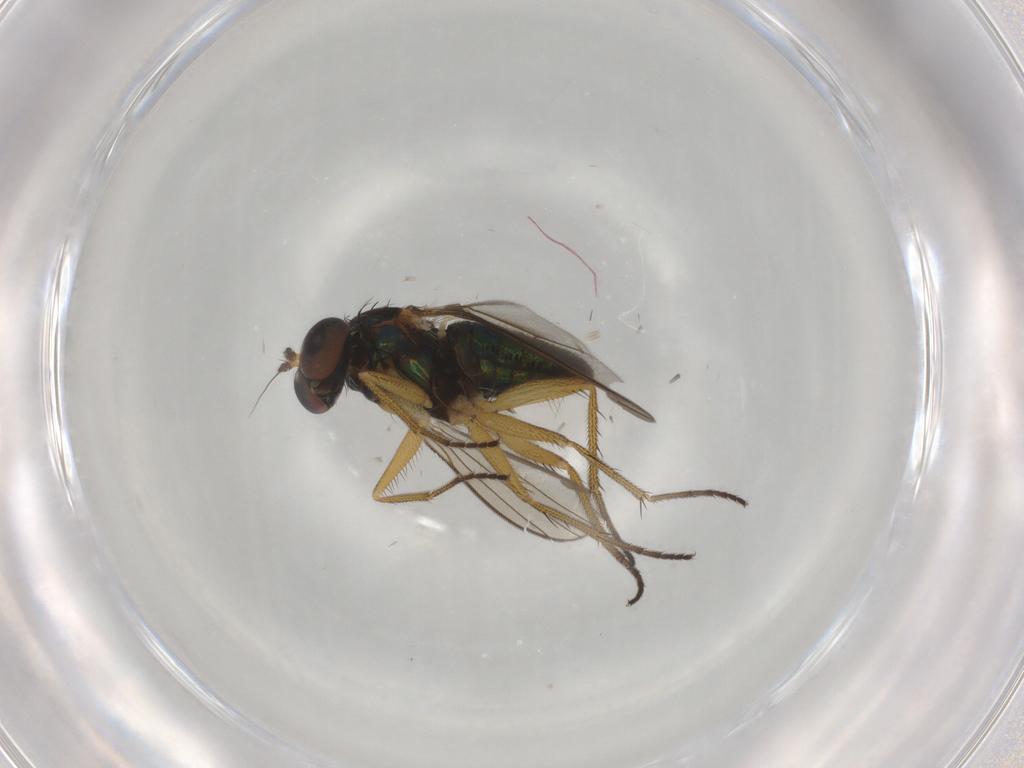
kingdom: Animalia
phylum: Arthropoda
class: Insecta
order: Diptera
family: Dolichopodidae
